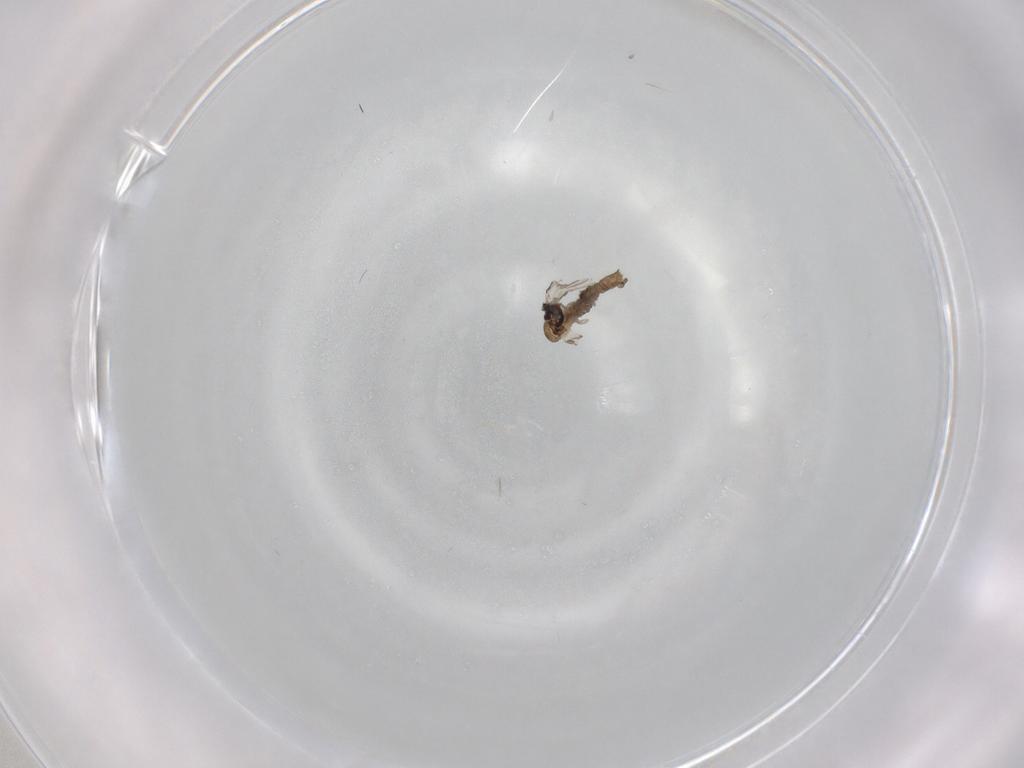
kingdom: Animalia
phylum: Arthropoda
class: Insecta
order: Diptera
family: Psychodidae
